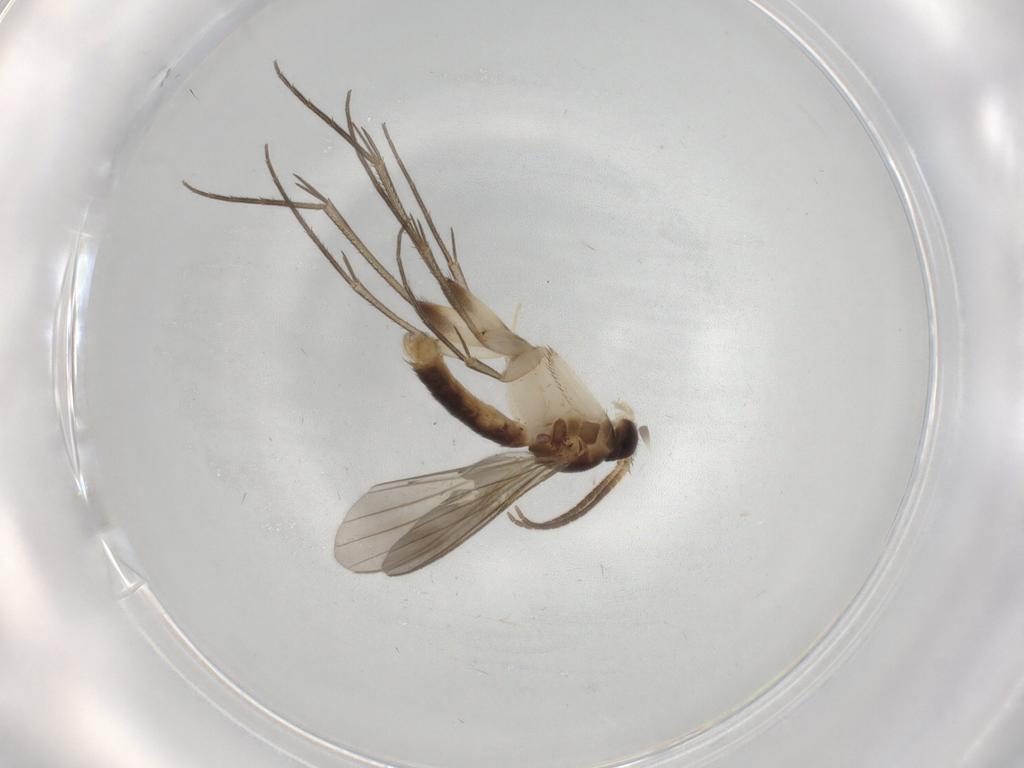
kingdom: Animalia
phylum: Arthropoda
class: Insecta
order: Diptera
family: Mycetophilidae
